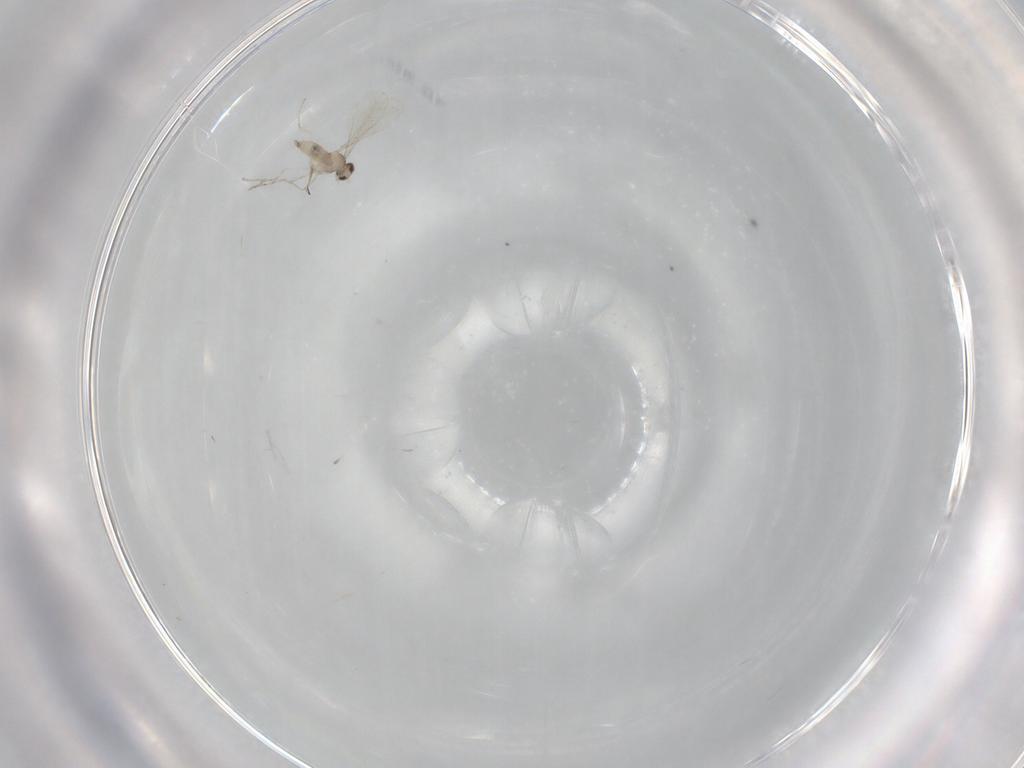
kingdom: Animalia
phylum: Arthropoda
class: Insecta
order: Diptera
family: Cecidomyiidae
